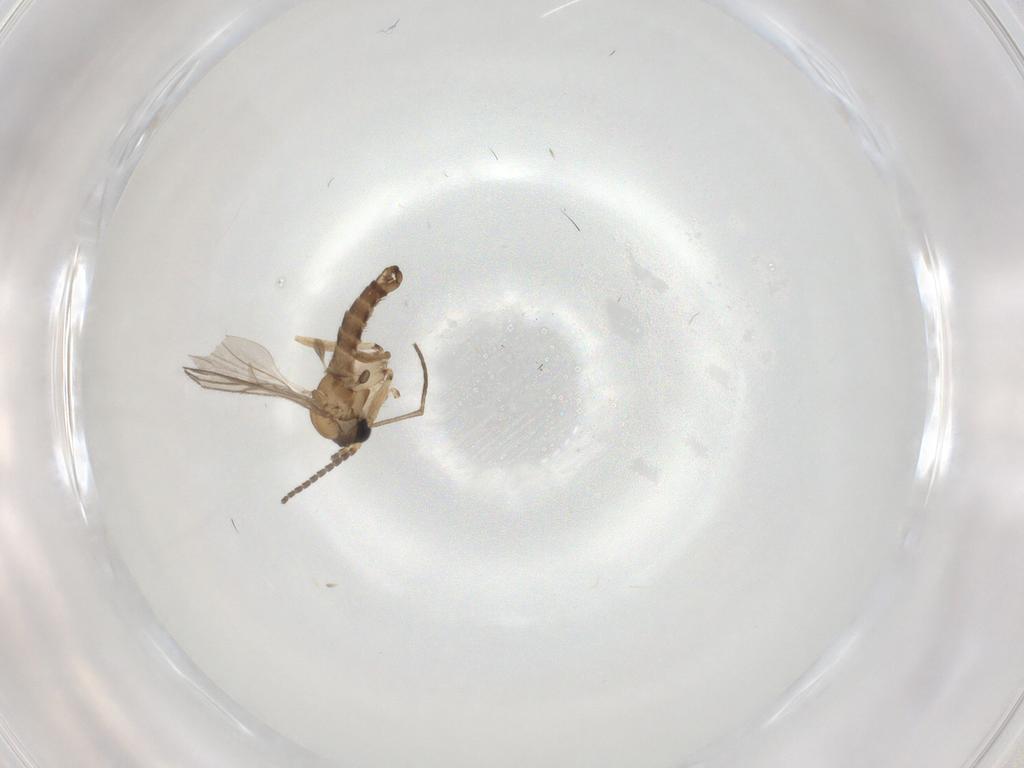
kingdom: Animalia
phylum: Arthropoda
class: Insecta
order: Diptera
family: Sciaridae
